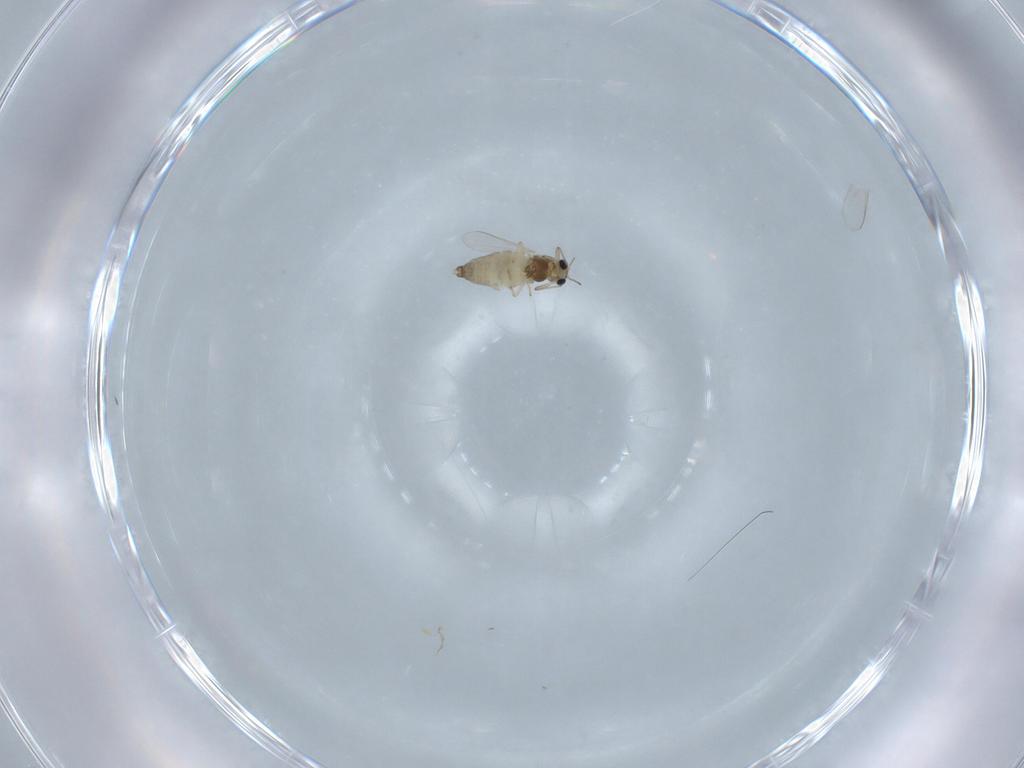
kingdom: Animalia
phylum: Arthropoda
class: Insecta
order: Diptera
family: Chironomidae
